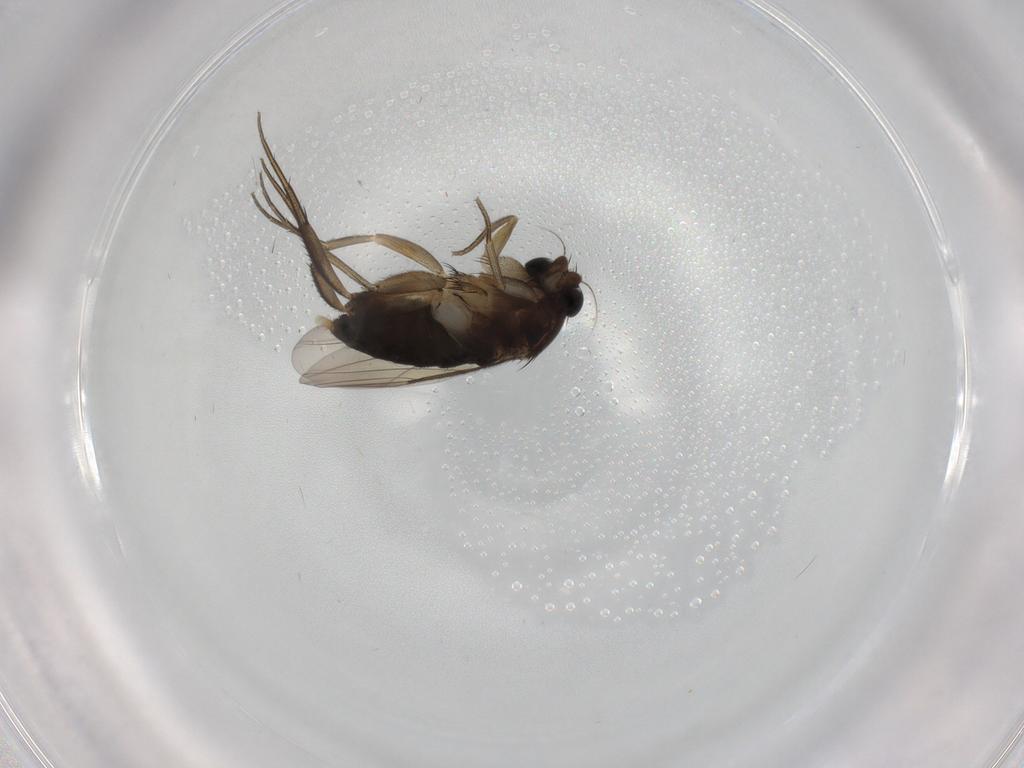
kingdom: Animalia
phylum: Arthropoda
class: Insecta
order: Diptera
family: Phoridae
